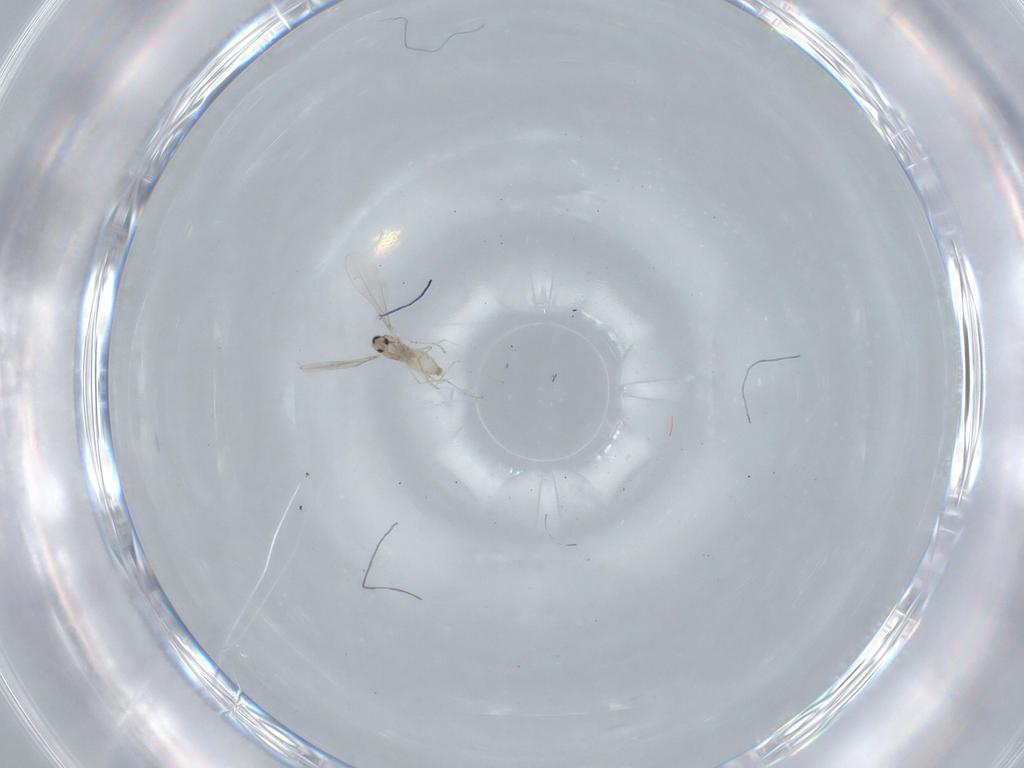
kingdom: Animalia
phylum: Arthropoda
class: Insecta
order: Diptera
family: Cecidomyiidae
